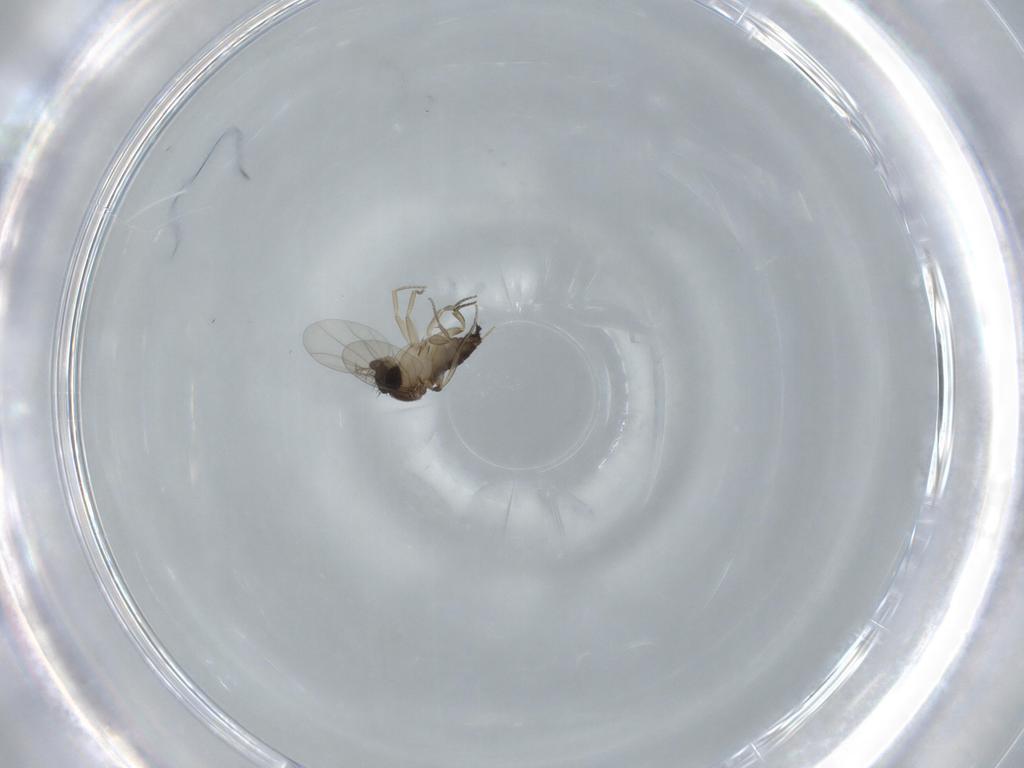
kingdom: Animalia
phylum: Arthropoda
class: Insecta
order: Diptera
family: Phoridae
